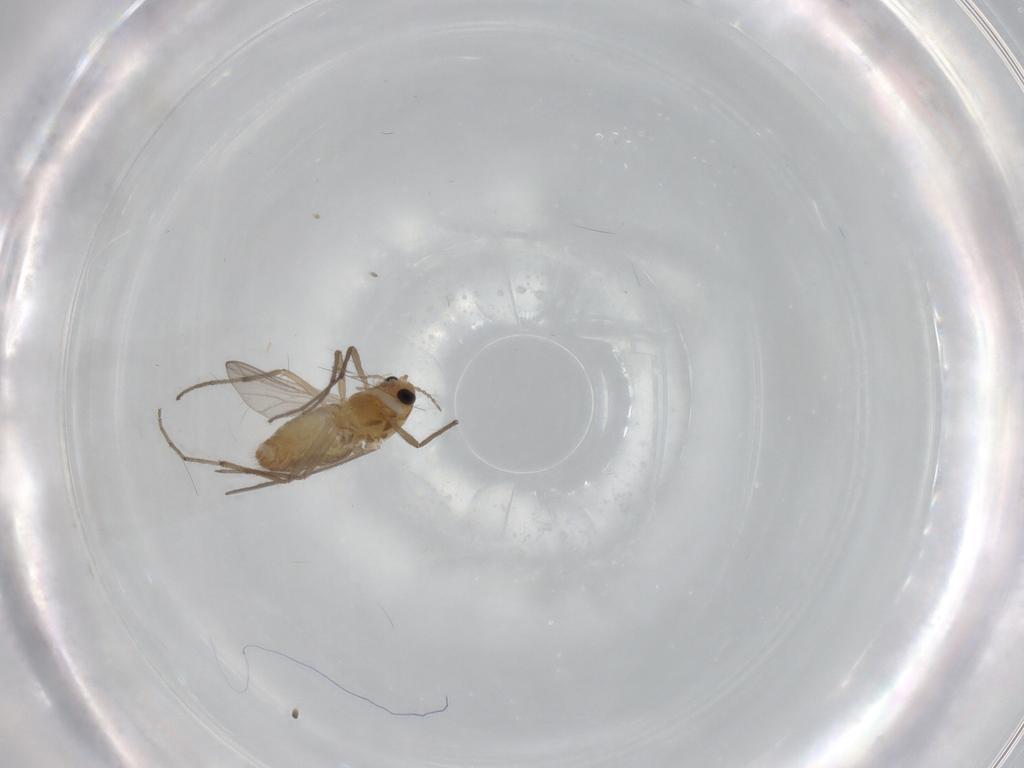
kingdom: Animalia
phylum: Arthropoda
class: Insecta
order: Diptera
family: Chironomidae
